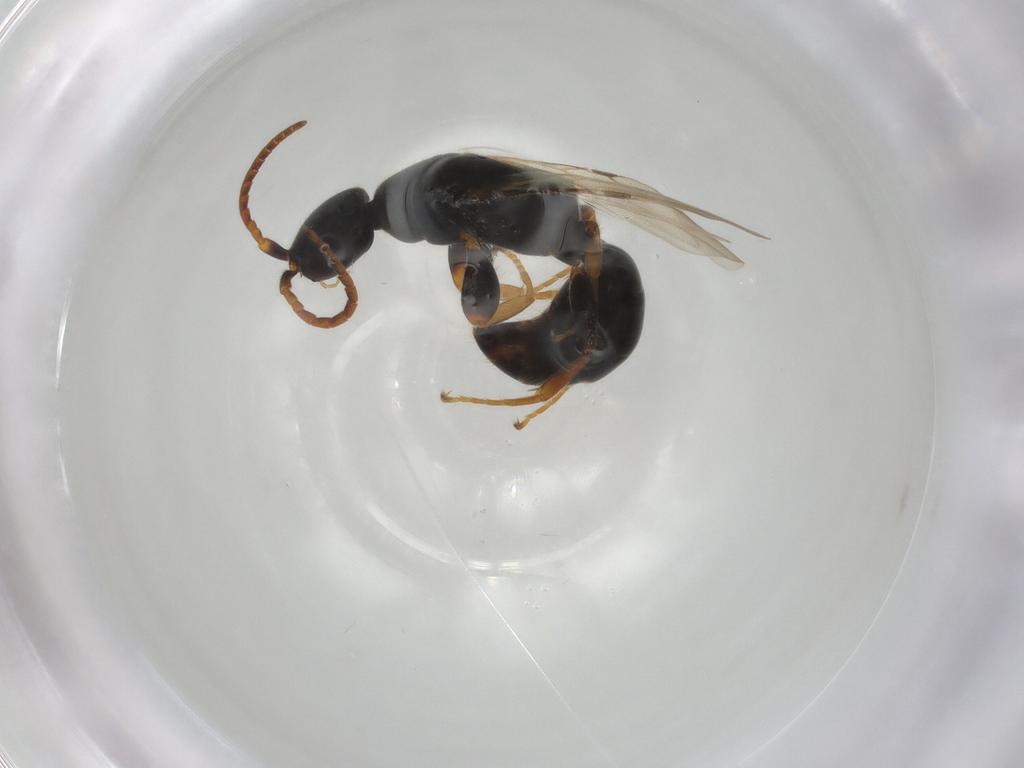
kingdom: Animalia
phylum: Arthropoda
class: Insecta
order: Hymenoptera
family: Bethylidae
